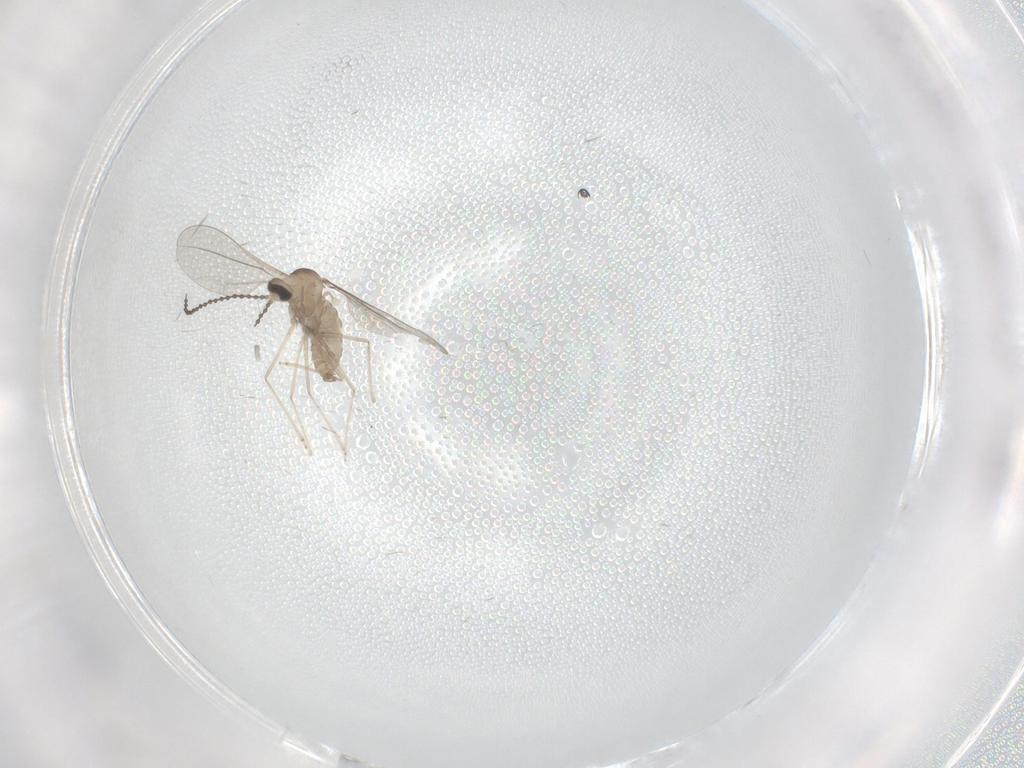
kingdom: Animalia
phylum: Arthropoda
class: Insecta
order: Diptera
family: Cecidomyiidae
